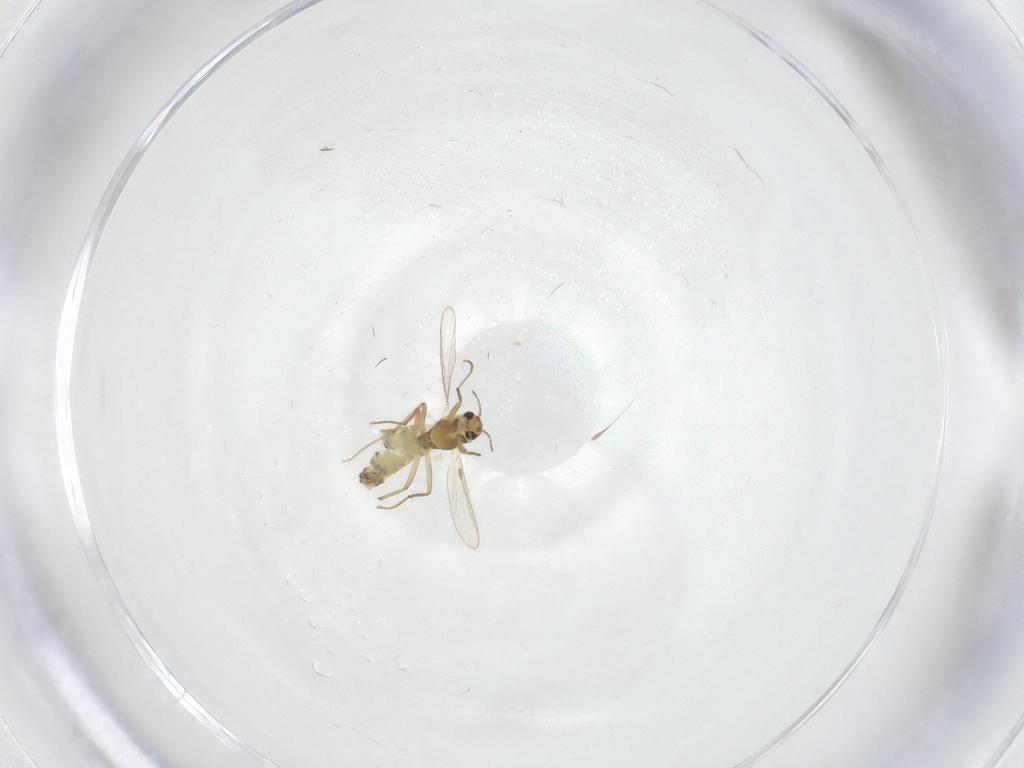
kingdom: Animalia
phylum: Arthropoda
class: Insecta
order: Diptera
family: Chironomidae
